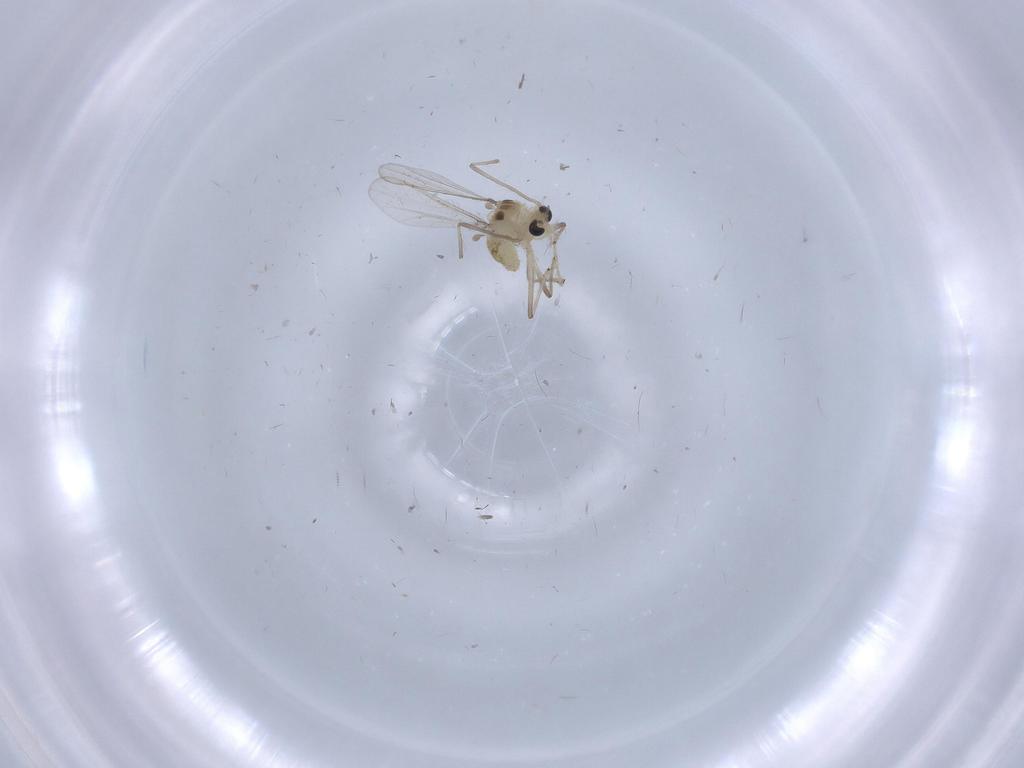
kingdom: Animalia
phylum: Arthropoda
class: Insecta
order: Diptera
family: Chironomidae
